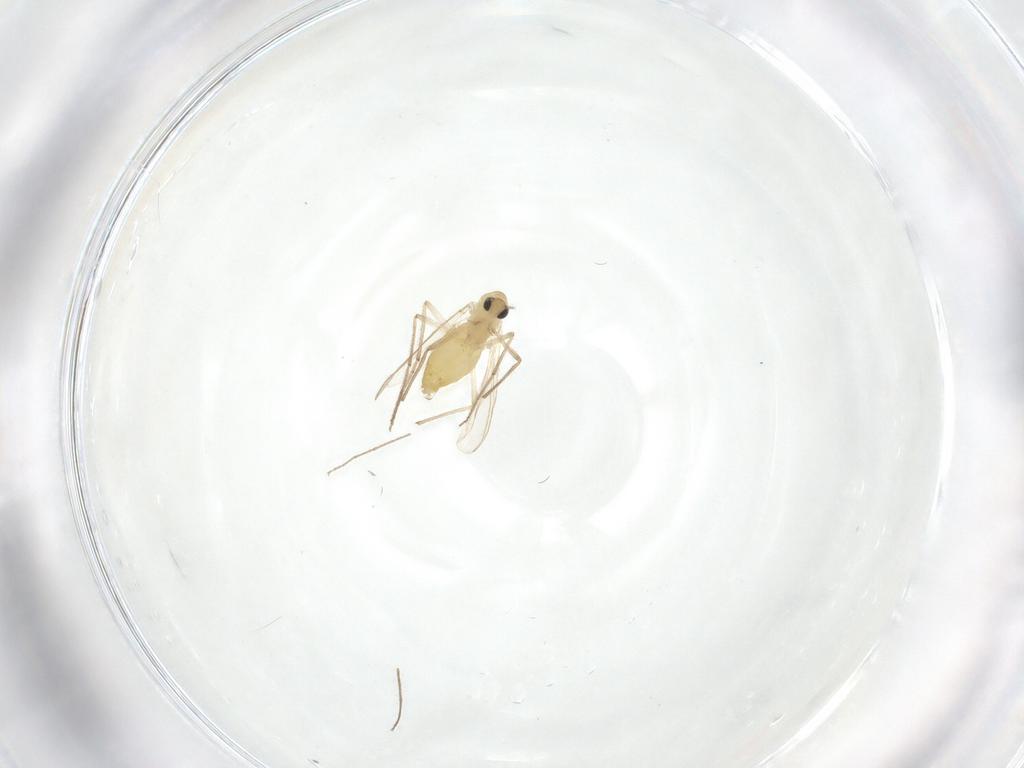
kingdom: Animalia
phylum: Arthropoda
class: Insecta
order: Diptera
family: Chironomidae
